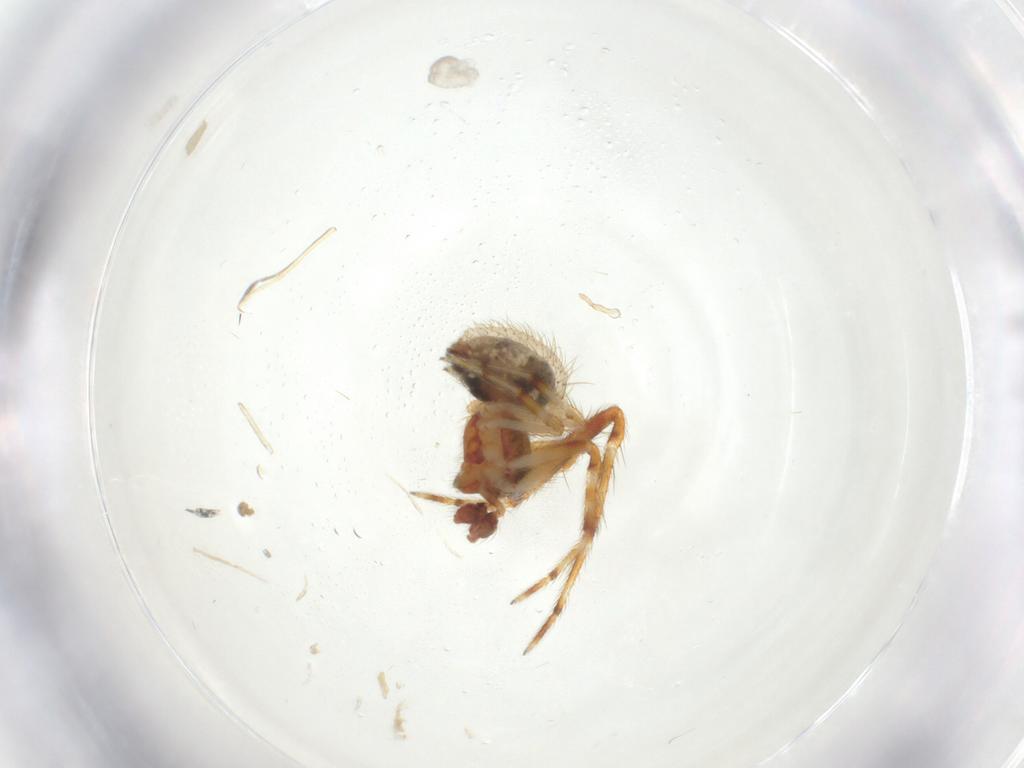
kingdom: Animalia
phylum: Arthropoda
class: Arachnida
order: Araneae
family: Theridiidae
